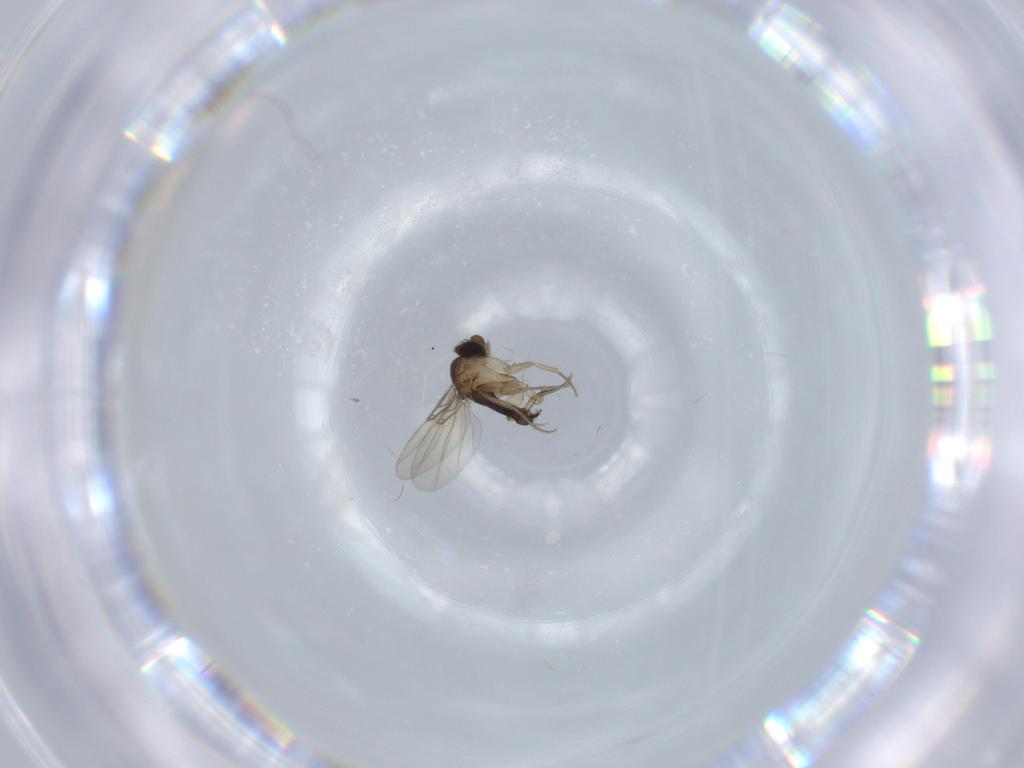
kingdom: Animalia
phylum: Arthropoda
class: Insecta
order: Diptera
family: Phoridae
